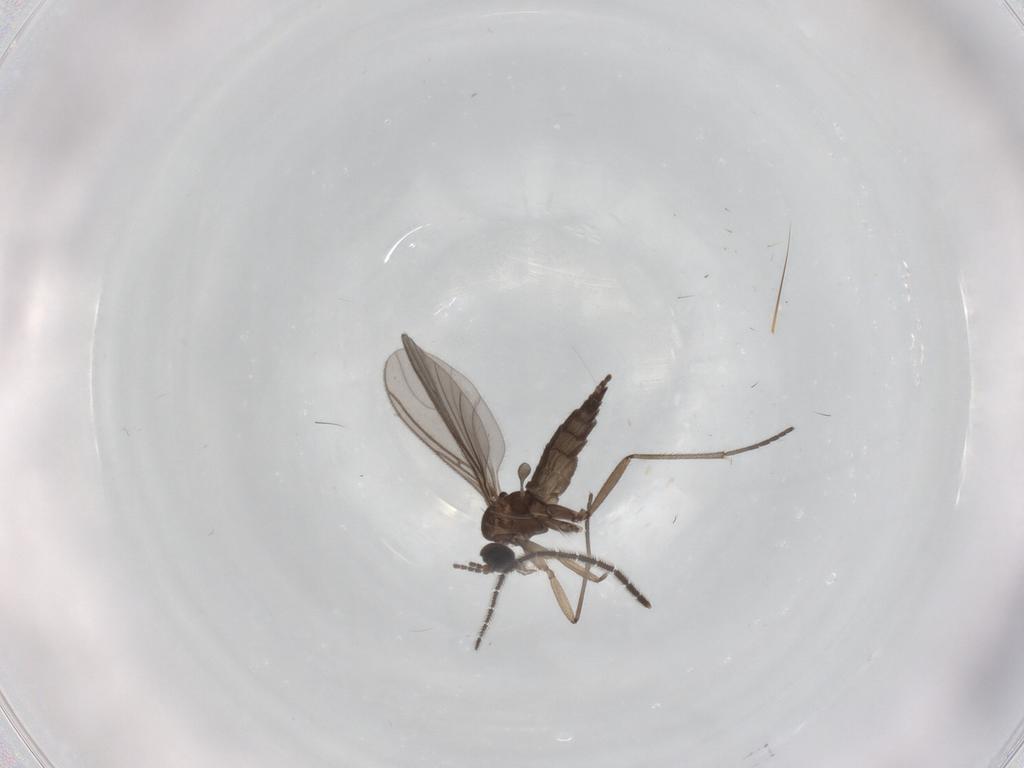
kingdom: Animalia
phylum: Arthropoda
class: Insecta
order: Diptera
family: Sciaridae
